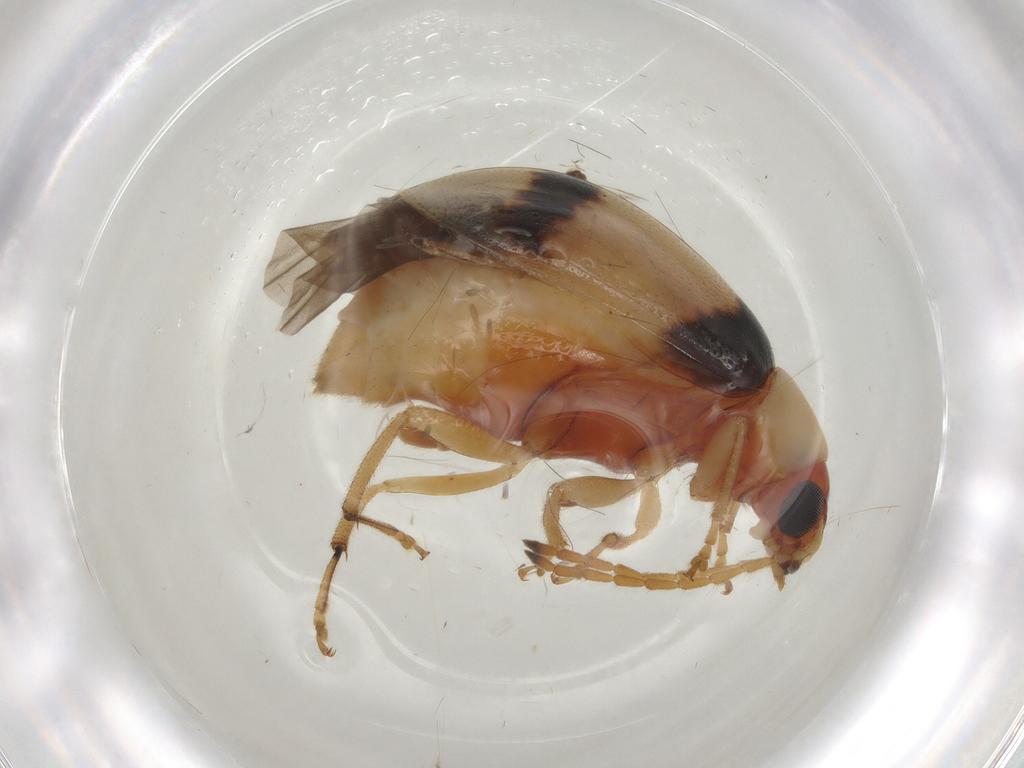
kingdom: Animalia
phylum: Arthropoda
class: Insecta
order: Coleoptera
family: Chrysomelidae
